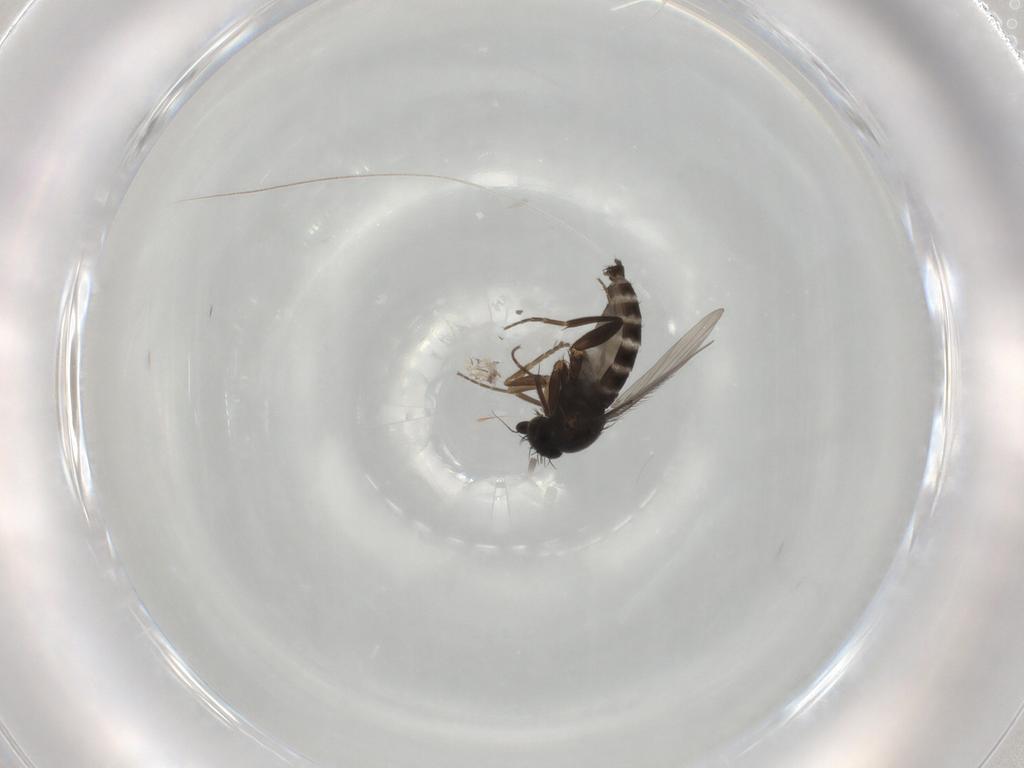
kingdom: Animalia
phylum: Arthropoda
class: Insecta
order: Diptera
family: Phoridae
